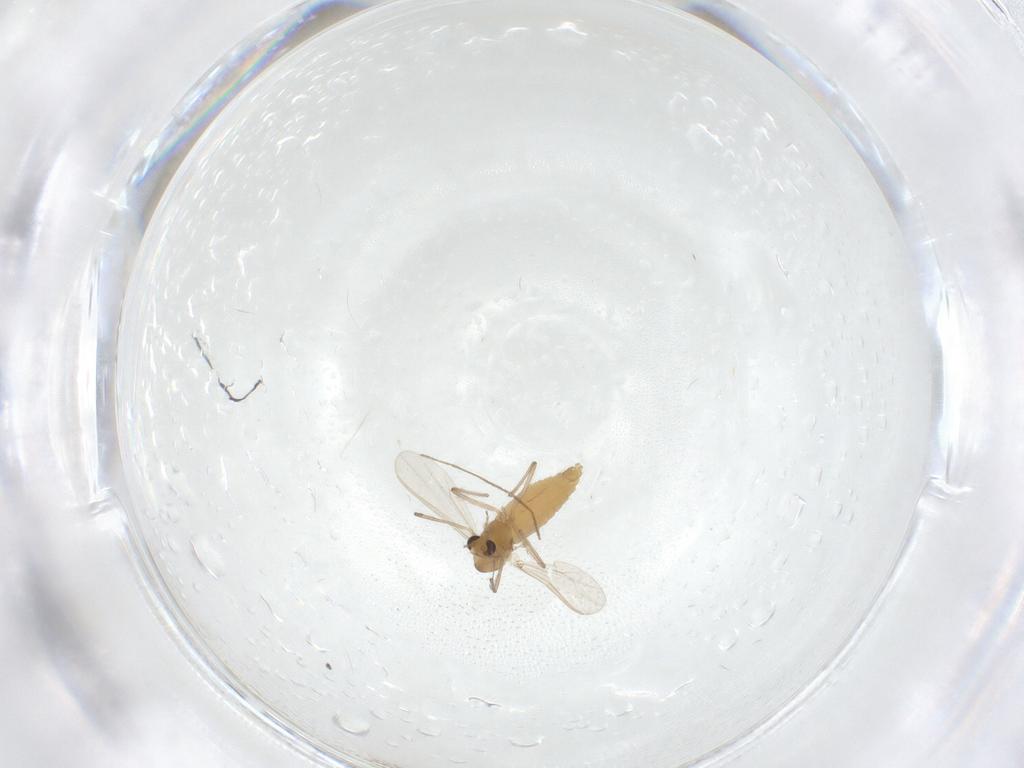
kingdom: Animalia
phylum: Arthropoda
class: Insecta
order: Diptera
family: Chironomidae
